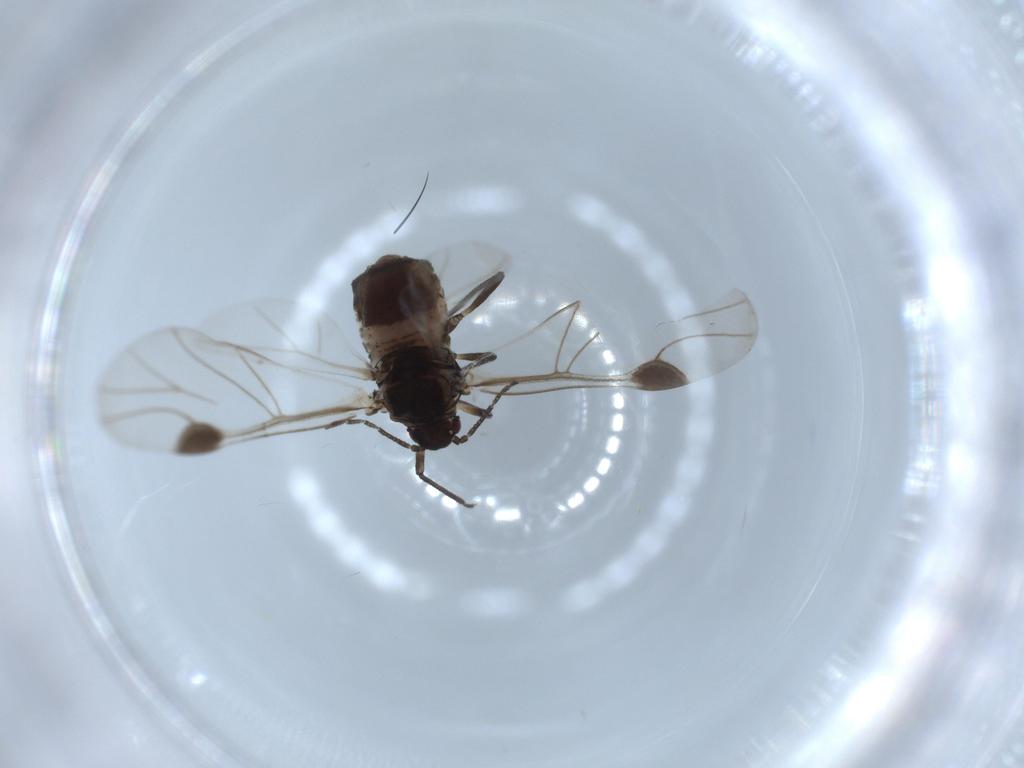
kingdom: Animalia
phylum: Arthropoda
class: Insecta
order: Hemiptera
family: Aphididae
